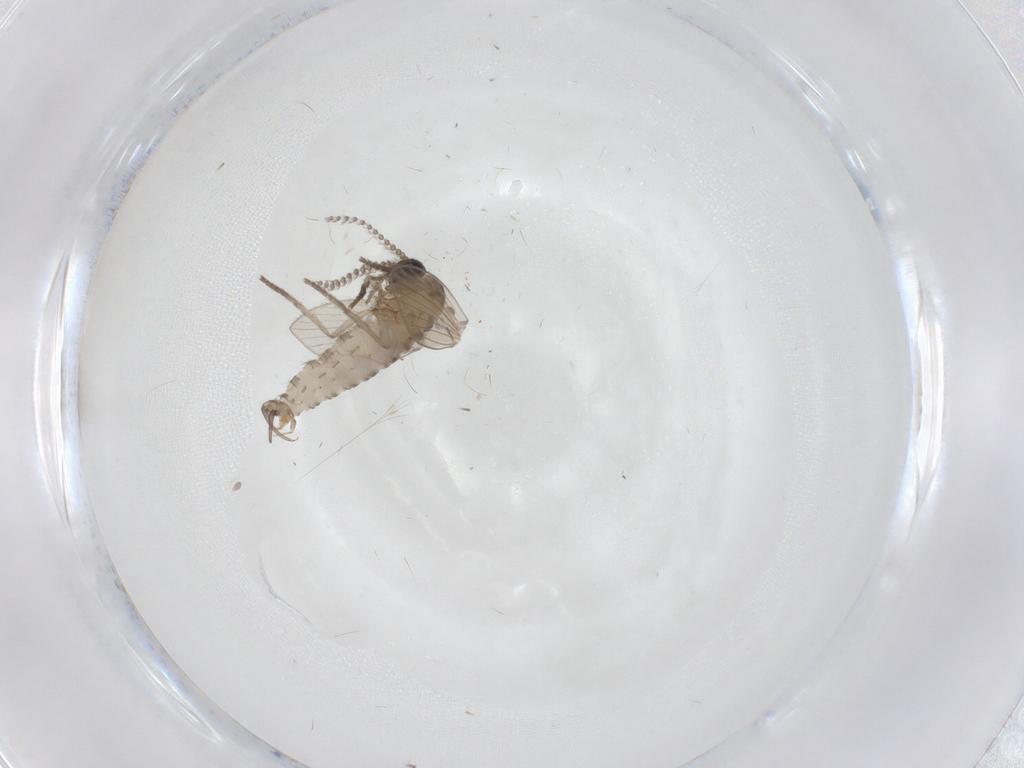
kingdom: Animalia
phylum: Arthropoda
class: Insecta
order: Diptera
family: Psychodidae
